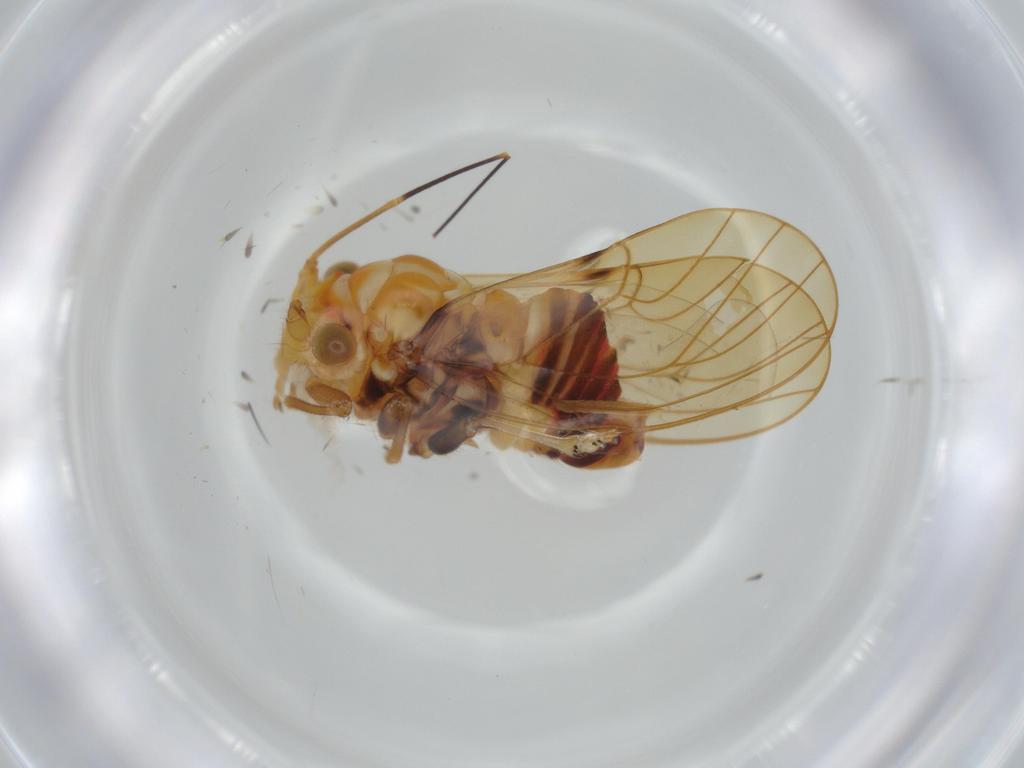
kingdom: Animalia
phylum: Arthropoda
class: Insecta
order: Hemiptera
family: Psyllidae
